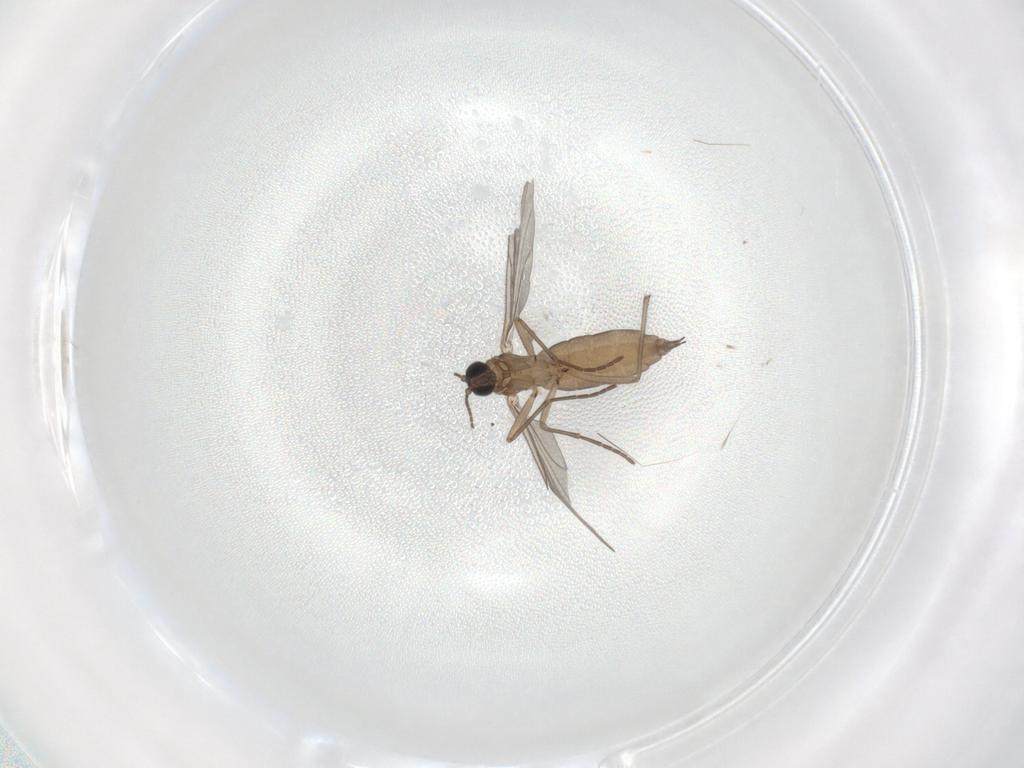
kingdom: Animalia
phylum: Arthropoda
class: Insecta
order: Diptera
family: Sciaridae
